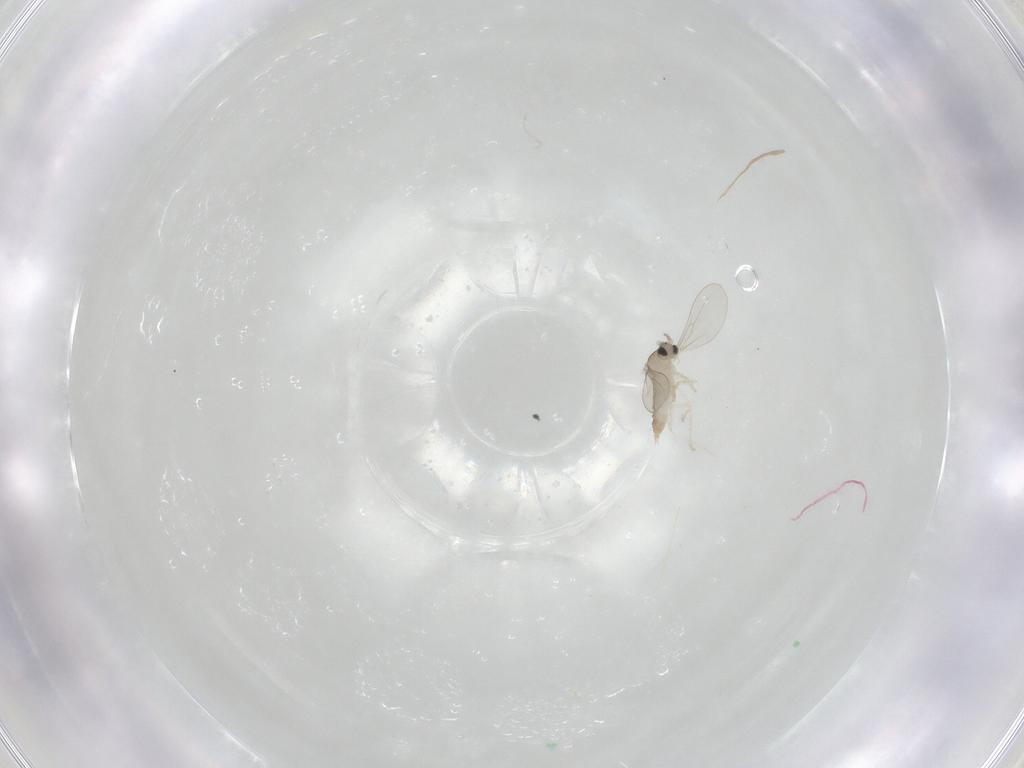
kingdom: Animalia
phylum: Arthropoda
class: Insecta
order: Diptera
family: Cecidomyiidae
